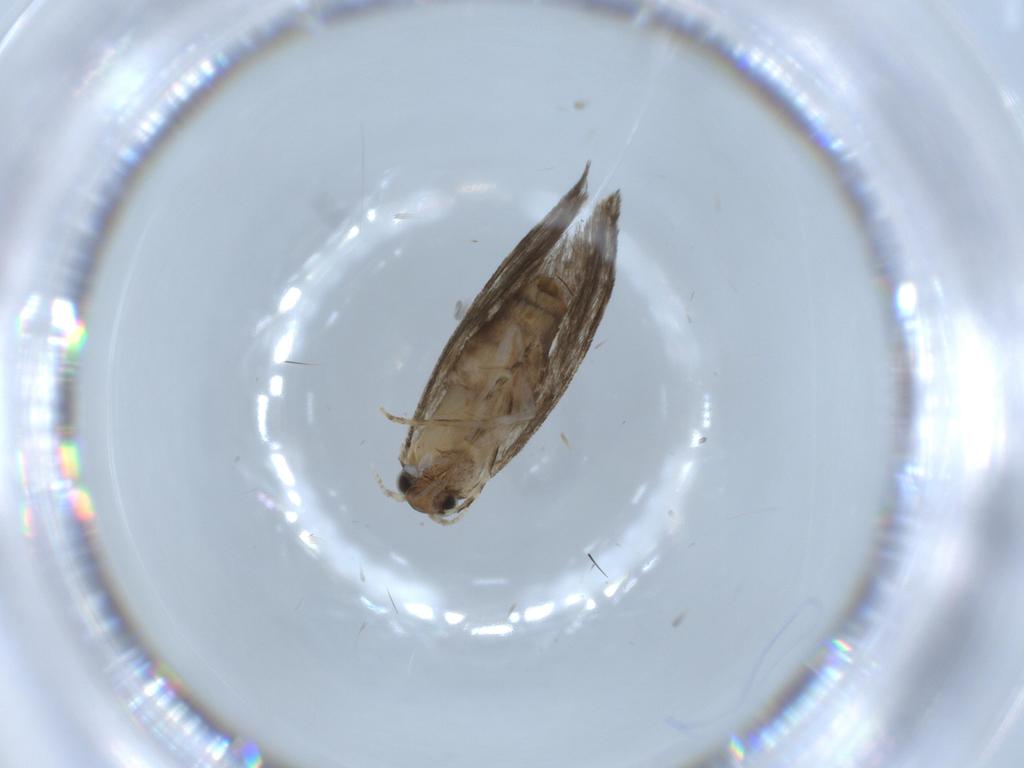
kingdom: Animalia
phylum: Arthropoda
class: Insecta
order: Lepidoptera
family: Tineidae
